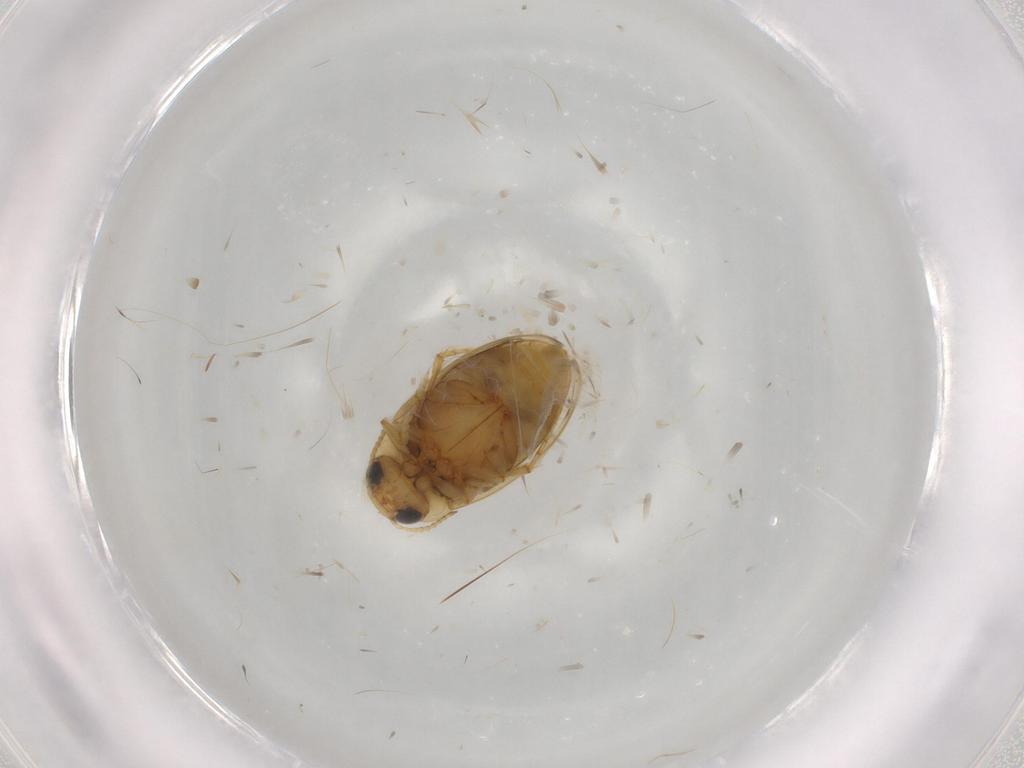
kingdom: Animalia
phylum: Arthropoda
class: Insecta
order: Coleoptera
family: Dytiscidae
